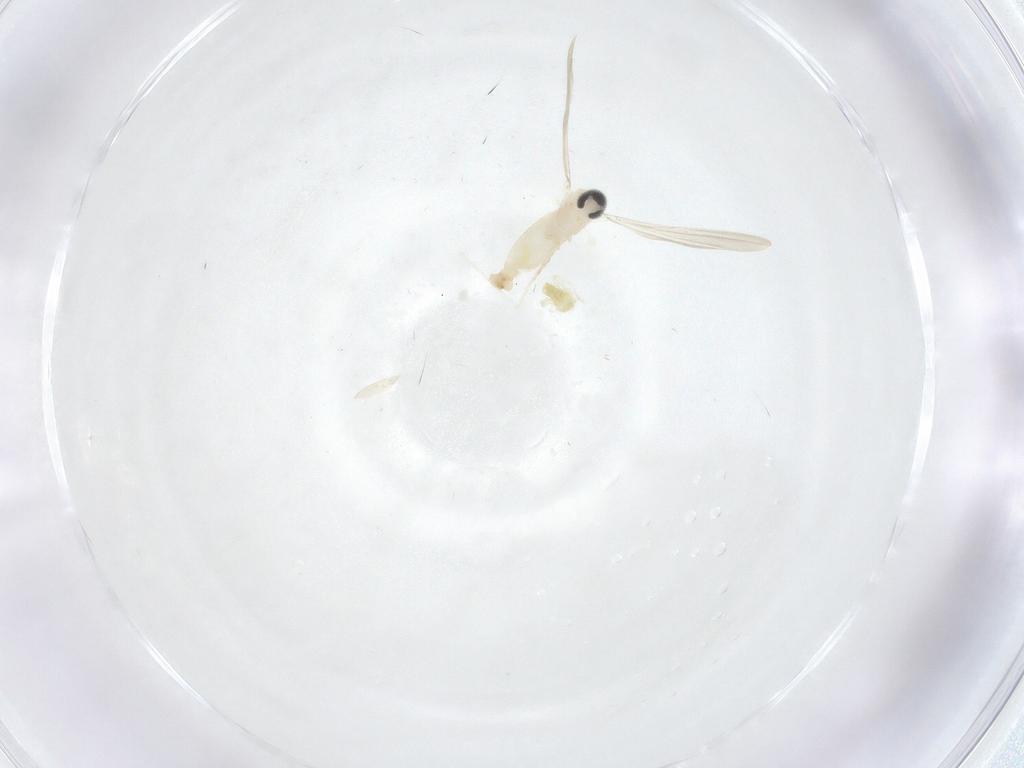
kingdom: Animalia
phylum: Arthropoda
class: Insecta
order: Diptera
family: Cecidomyiidae
